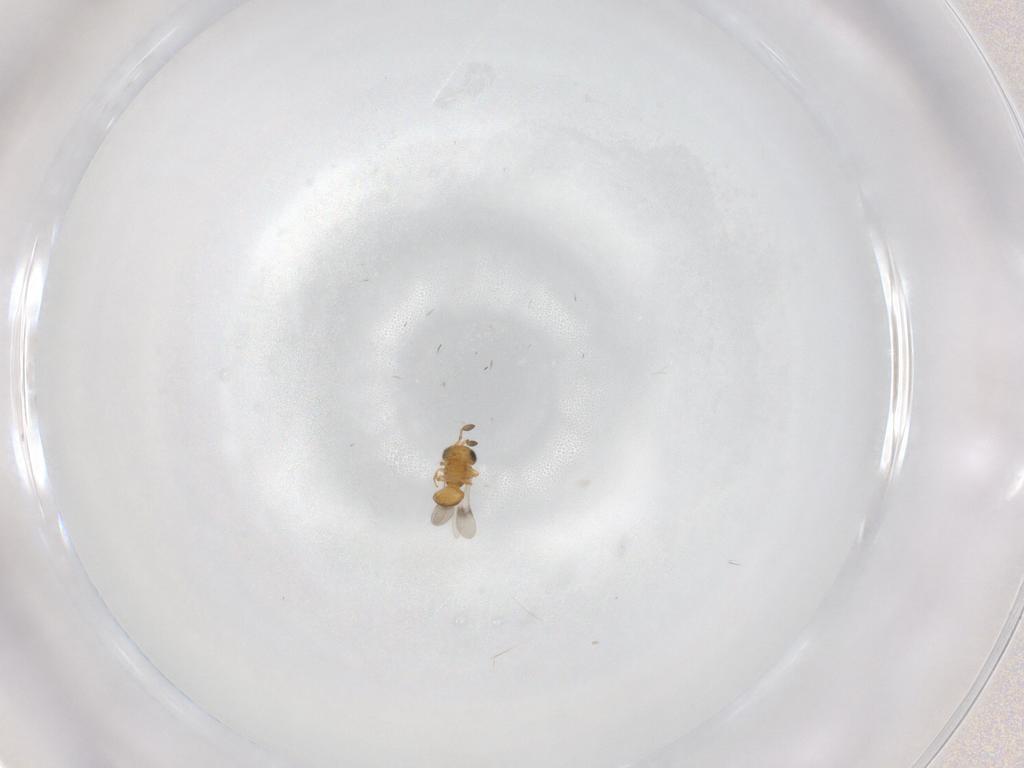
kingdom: Animalia
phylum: Arthropoda
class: Insecta
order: Hymenoptera
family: Scelionidae
